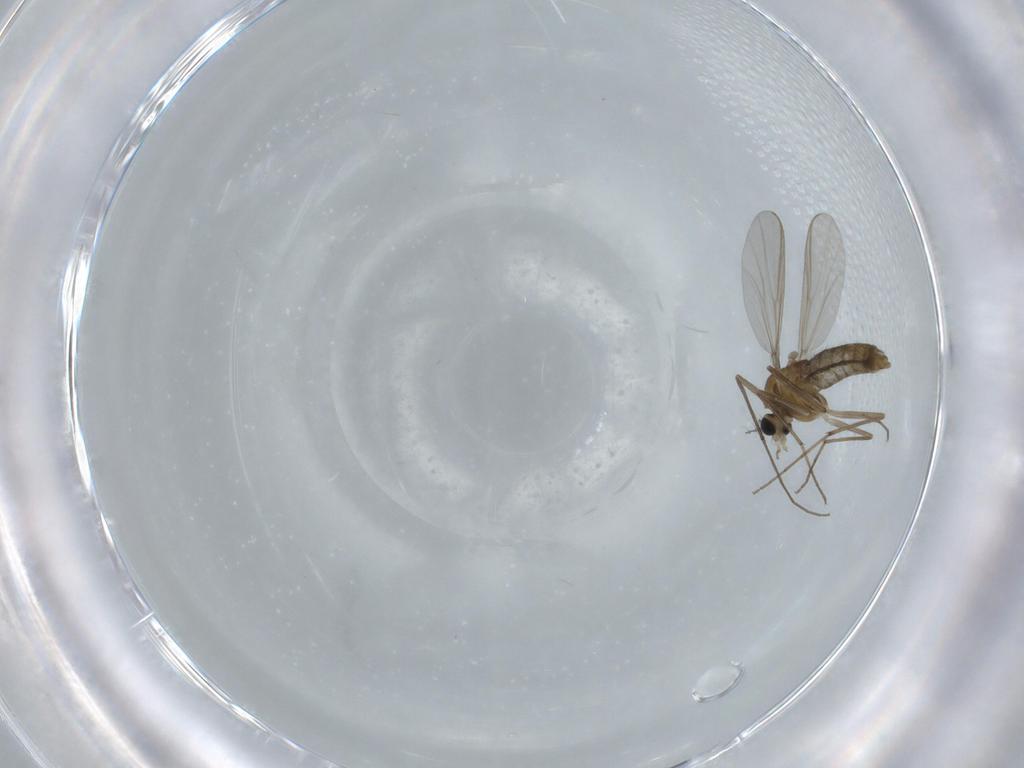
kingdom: Animalia
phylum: Arthropoda
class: Insecta
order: Diptera
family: Chironomidae
